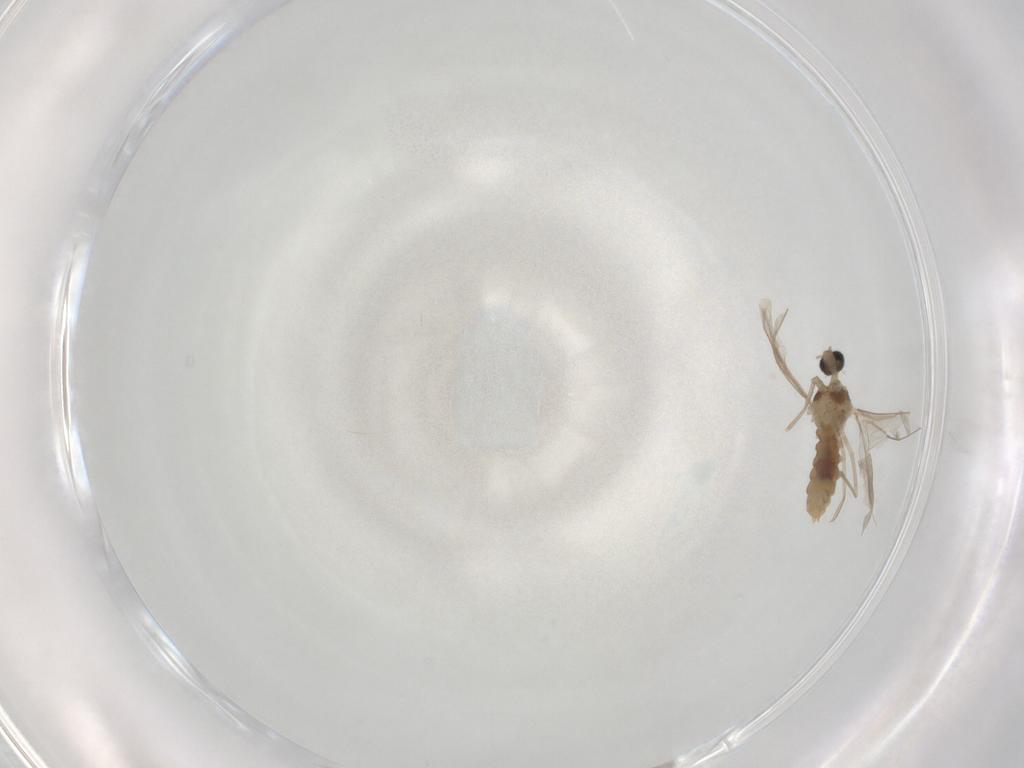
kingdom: Animalia
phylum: Arthropoda
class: Insecta
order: Diptera
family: Cecidomyiidae
